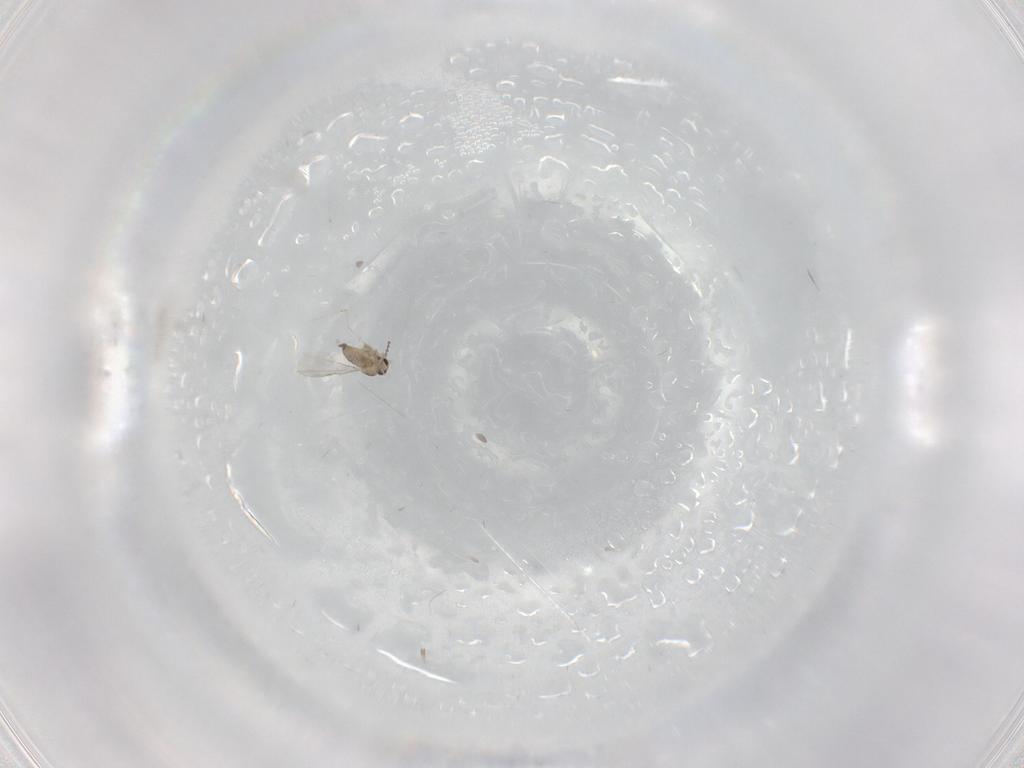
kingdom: Animalia
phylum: Arthropoda
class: Insecta
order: Diptera
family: Cecidomyiidae
